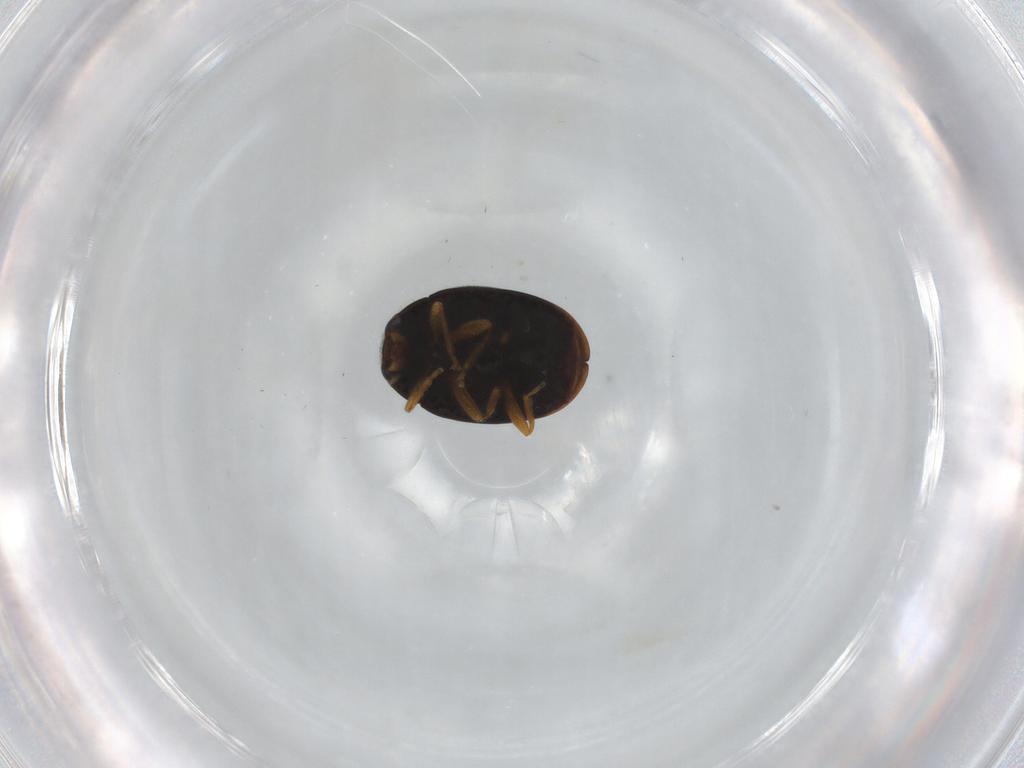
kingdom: Animalia
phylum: Arthropoda
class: Insecta
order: Coleoptera
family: Coccinellidae
